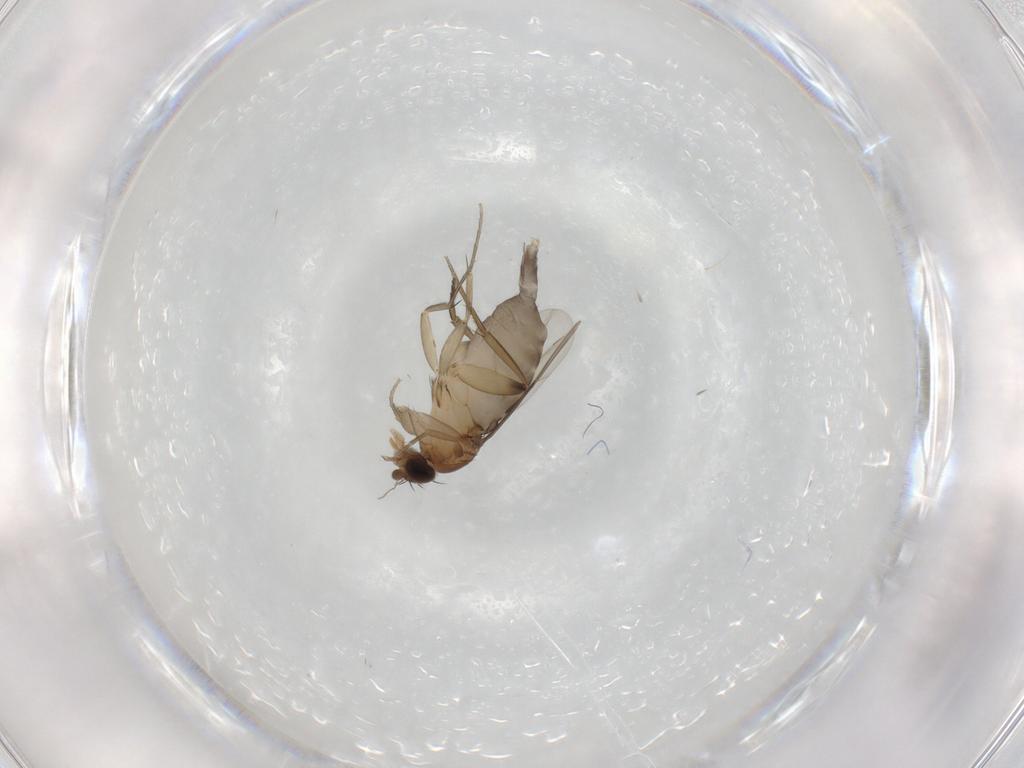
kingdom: Animalia
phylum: Arthropoda
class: Insecta
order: Diptera
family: Phoridae
